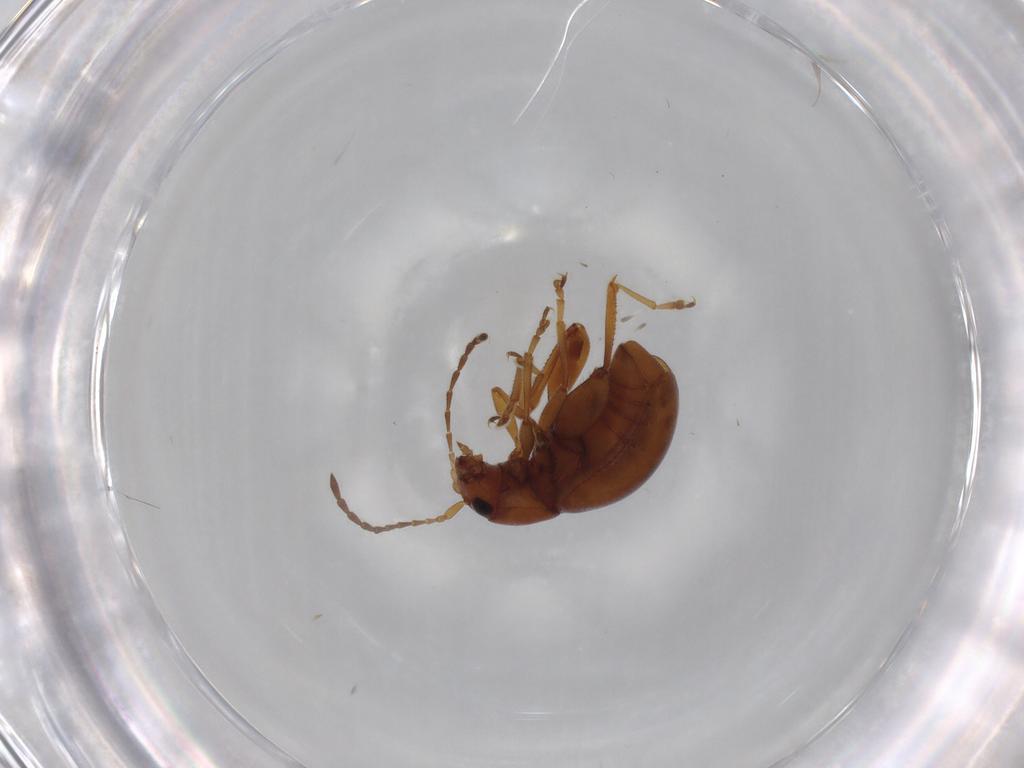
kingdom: Animalia
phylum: Arthropoda
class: Insecta
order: Coleoptera
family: Chrysomelidae
